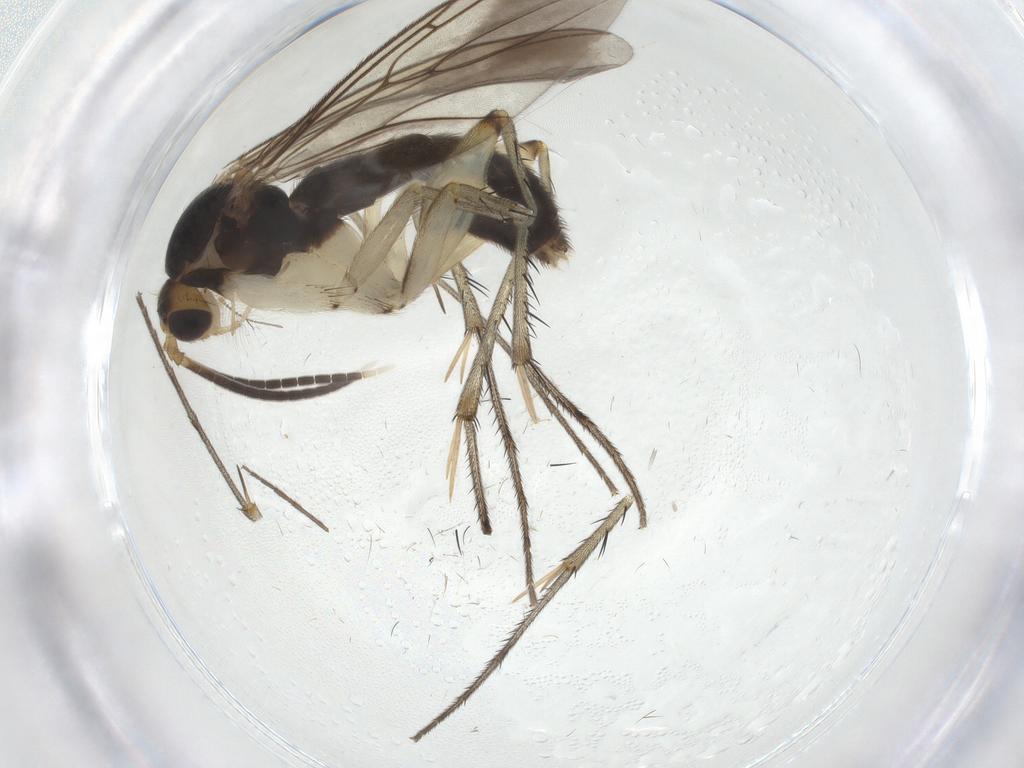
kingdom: Animalia
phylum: Arthropoda
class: Insecta
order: Diptera
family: Mycetophilidae
